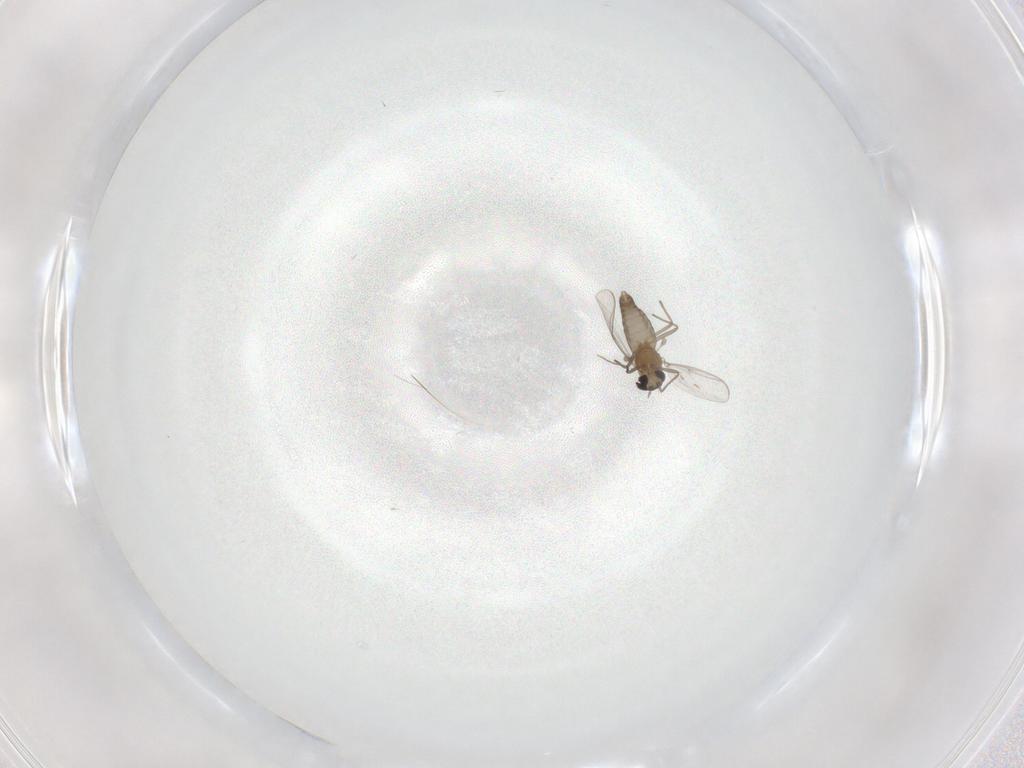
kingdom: Animalia
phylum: Arthropoda
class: Insecta
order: Diptera
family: Chironomidae
